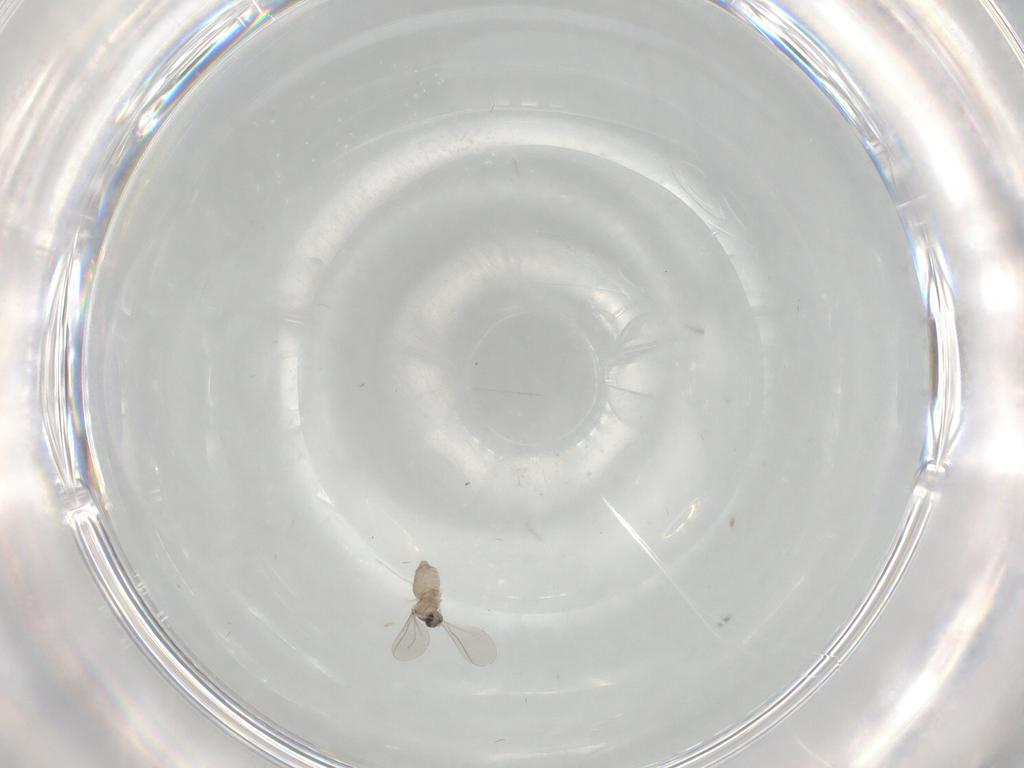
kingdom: Animalia
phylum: Arthropoda
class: Insecta
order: Diptera
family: Cecidomyiidae
